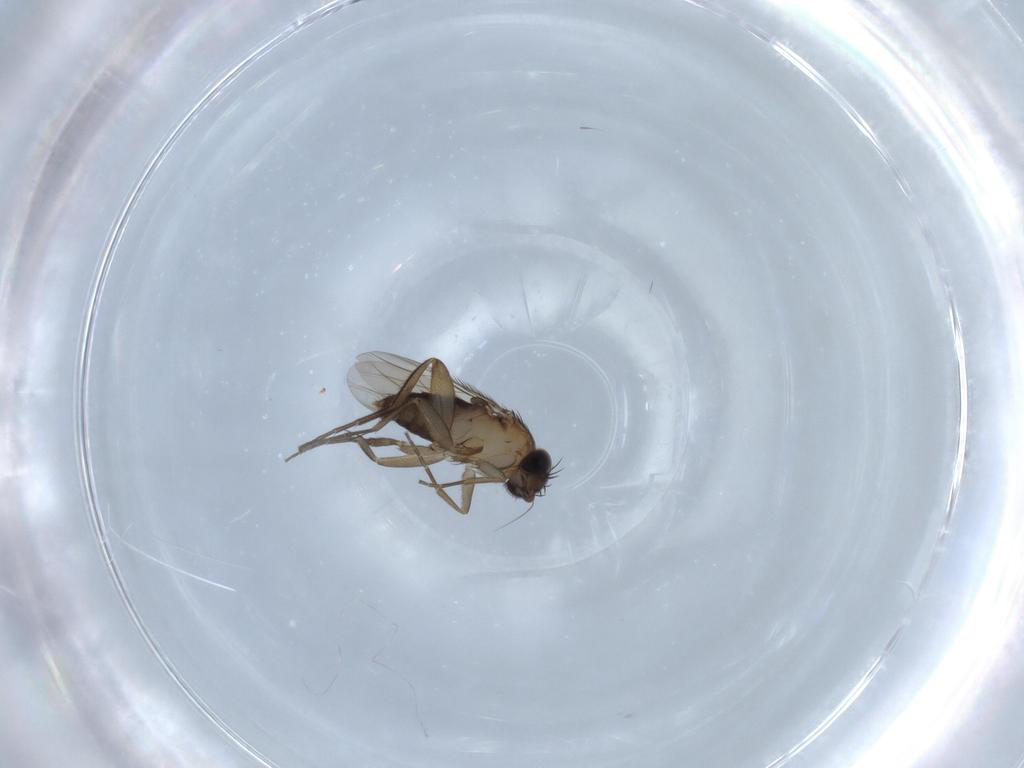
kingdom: Animalia
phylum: Arthropoda
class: Insecta
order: Diptera
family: Phoridae
